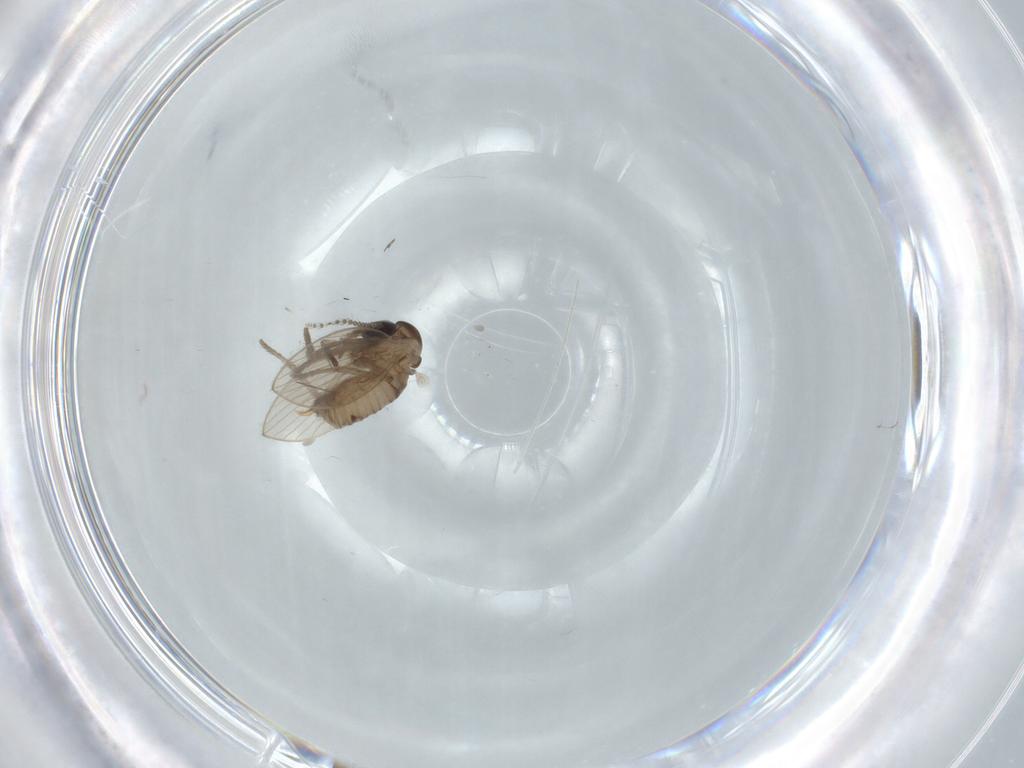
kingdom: Animalia
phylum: Arthropoda
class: Insecta
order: Diptera
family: Psychodidae
